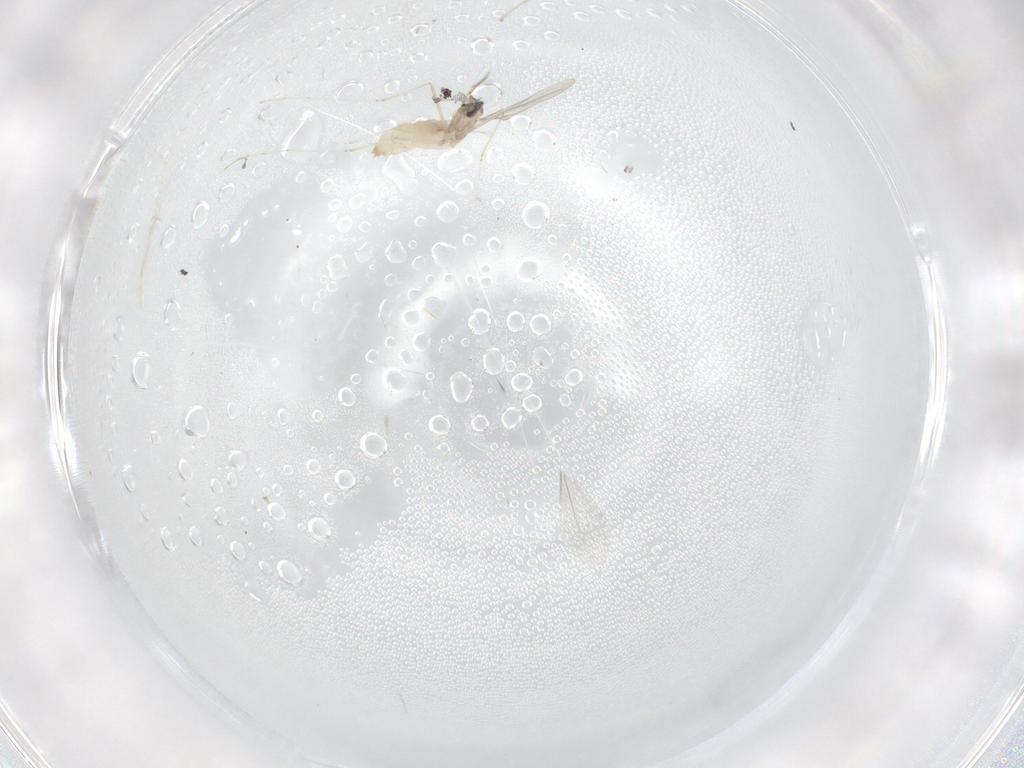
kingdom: Animalia
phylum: Arthropoda
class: Insecta
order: Diptera
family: Cecidomyiidae
